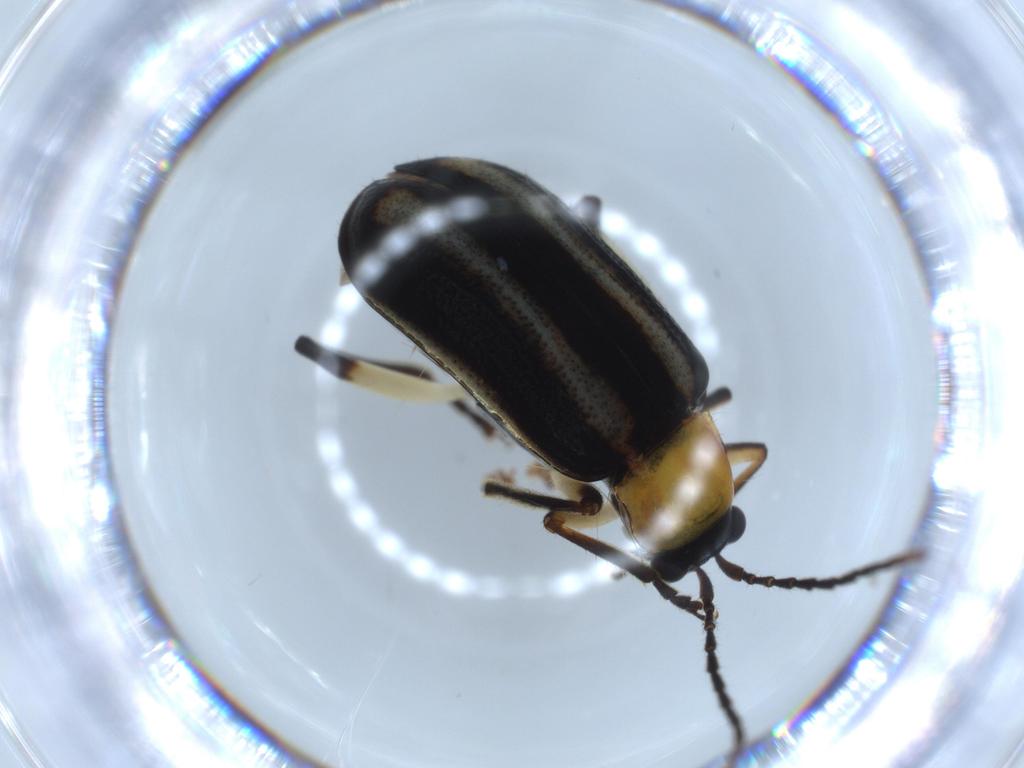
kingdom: Animalia
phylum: Arthropoda
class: Insecta
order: Coleoptera
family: Chrysomelidae
